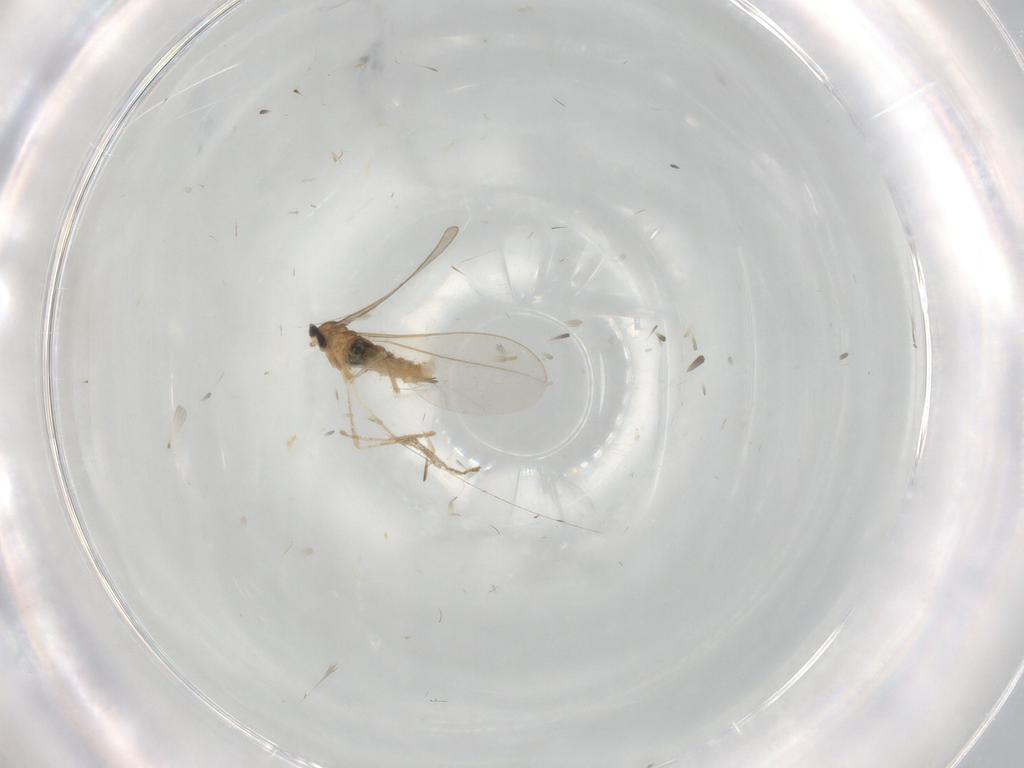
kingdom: Animalia
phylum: Arthropoda
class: Insecta
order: Diptera
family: Cecidomyiidae
